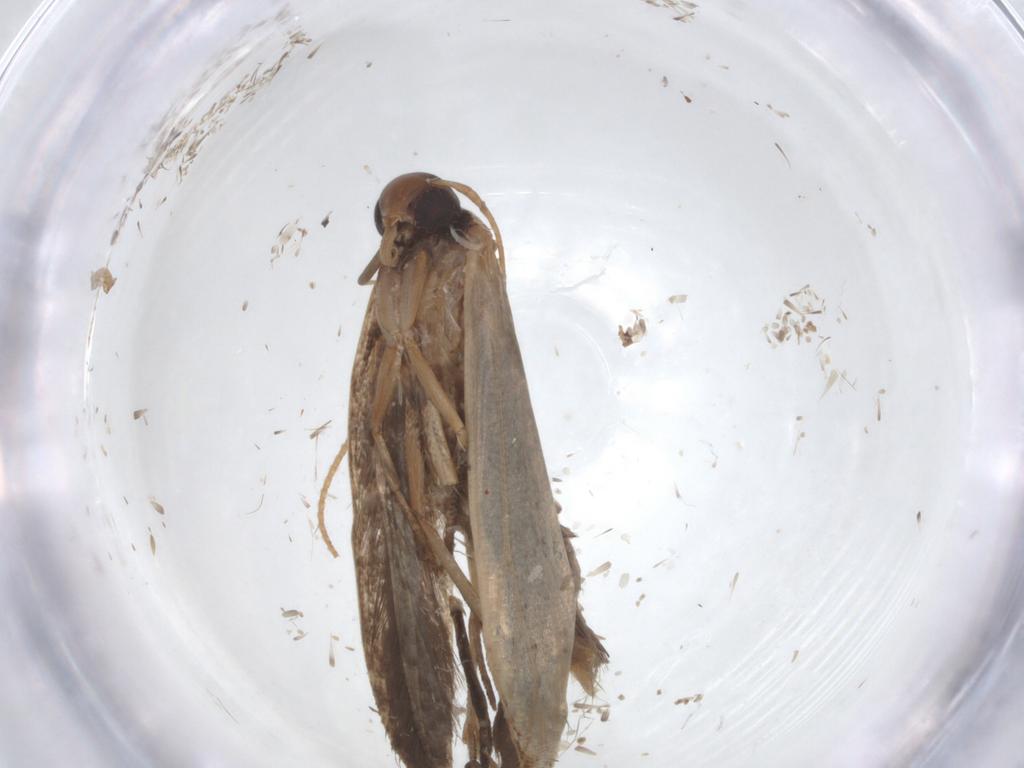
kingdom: Animalia
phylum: Arthropoda
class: Insecta
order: Lepidoptera
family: Gelechiidae
